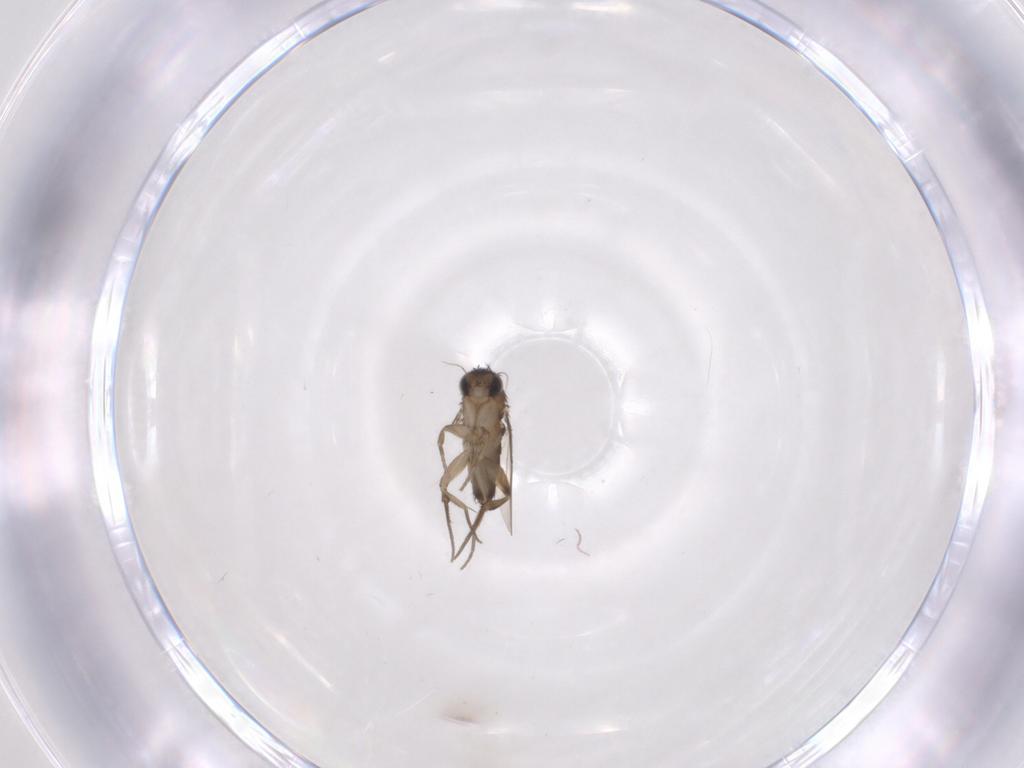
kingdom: Animalia
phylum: Arthropoda
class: Insecta
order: Diptera
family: Phoridae
